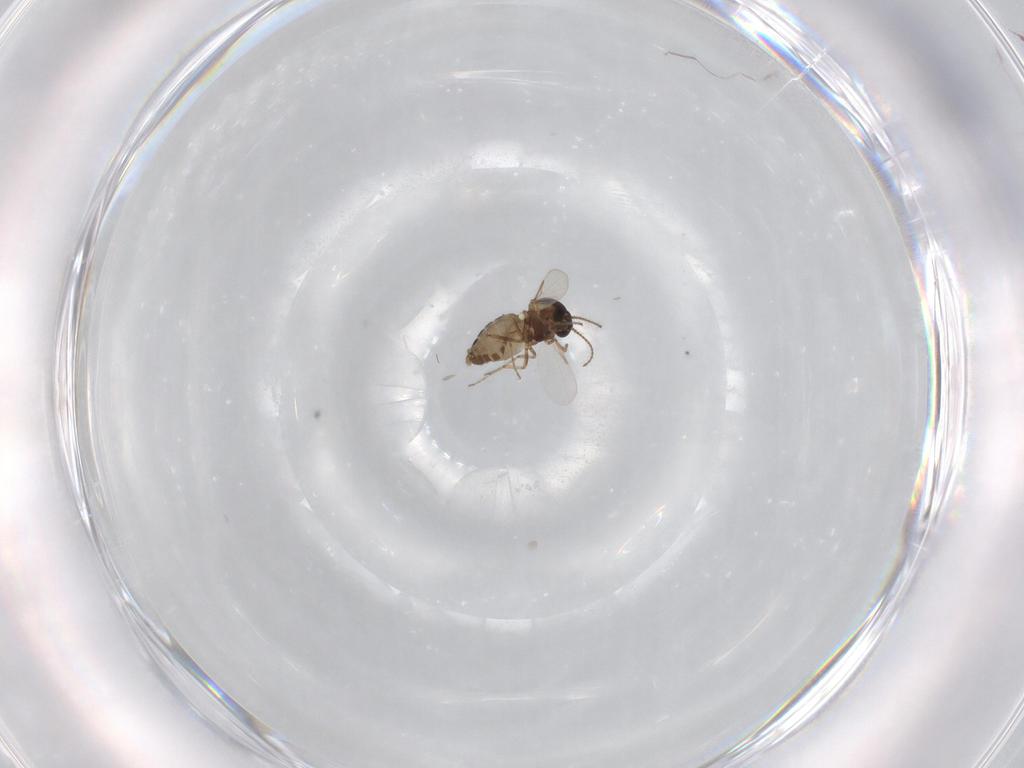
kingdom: Animalia
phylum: Arthropoda
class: Insecta
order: Diptera
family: Ceratopogonidae
